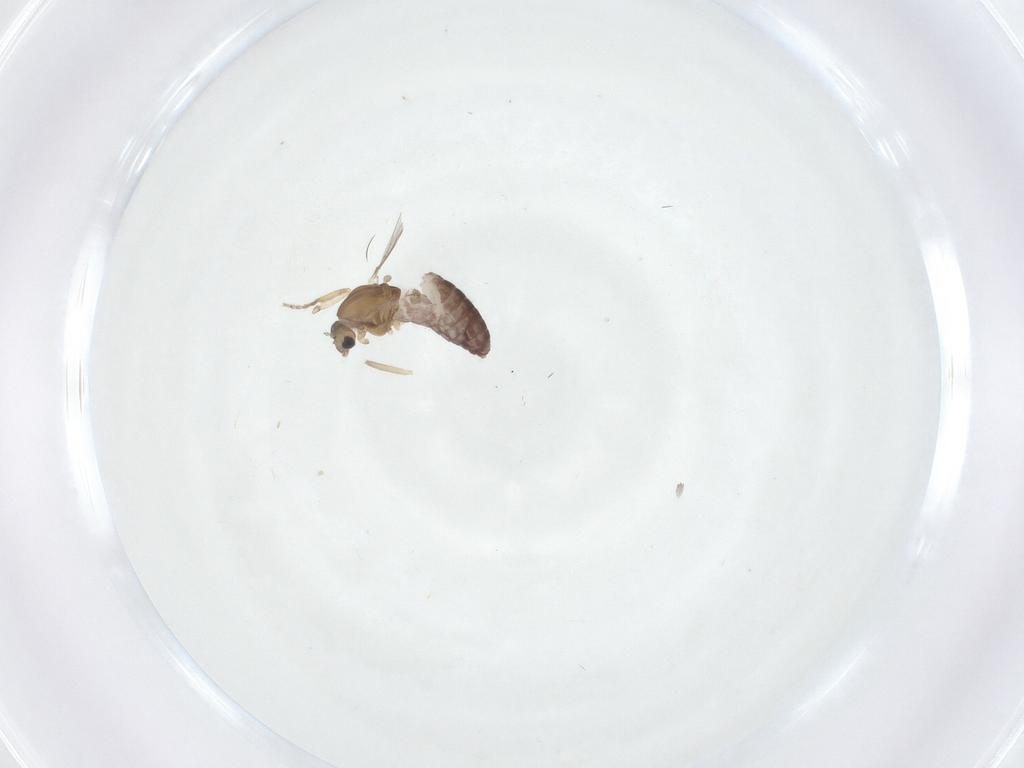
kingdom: Animalia
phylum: Arthropoda
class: Insecta
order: Diptera
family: Chironomidae
